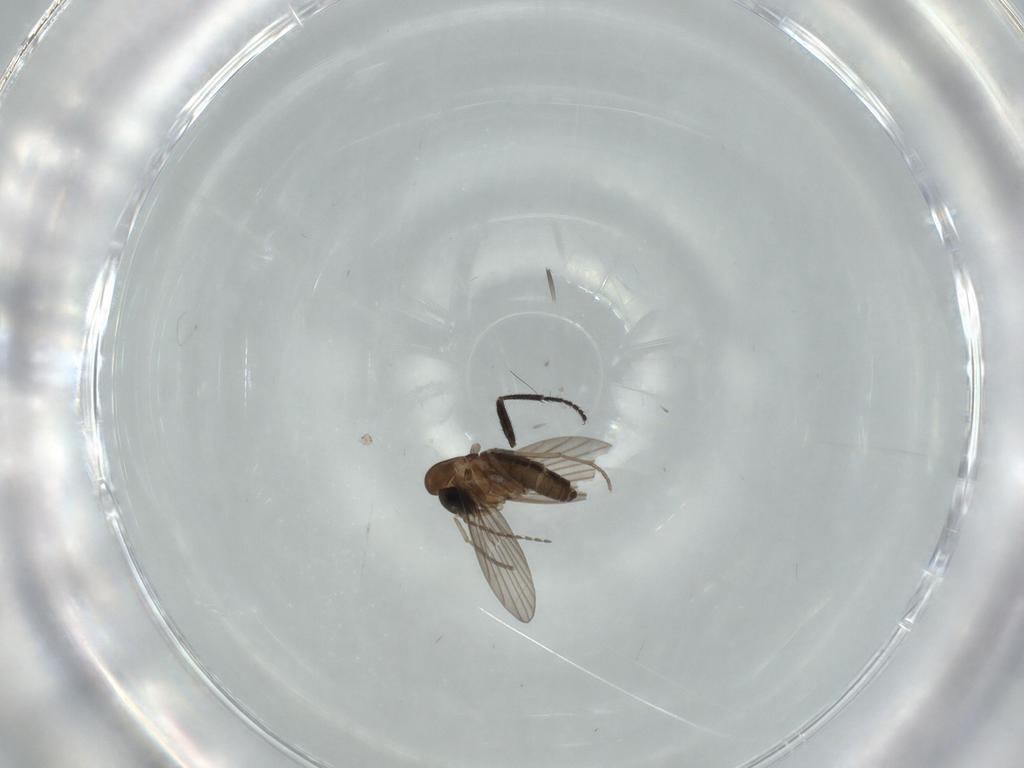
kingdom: Animalia
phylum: Arthropoda
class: Insecta
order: Diptera
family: Psychodidae
